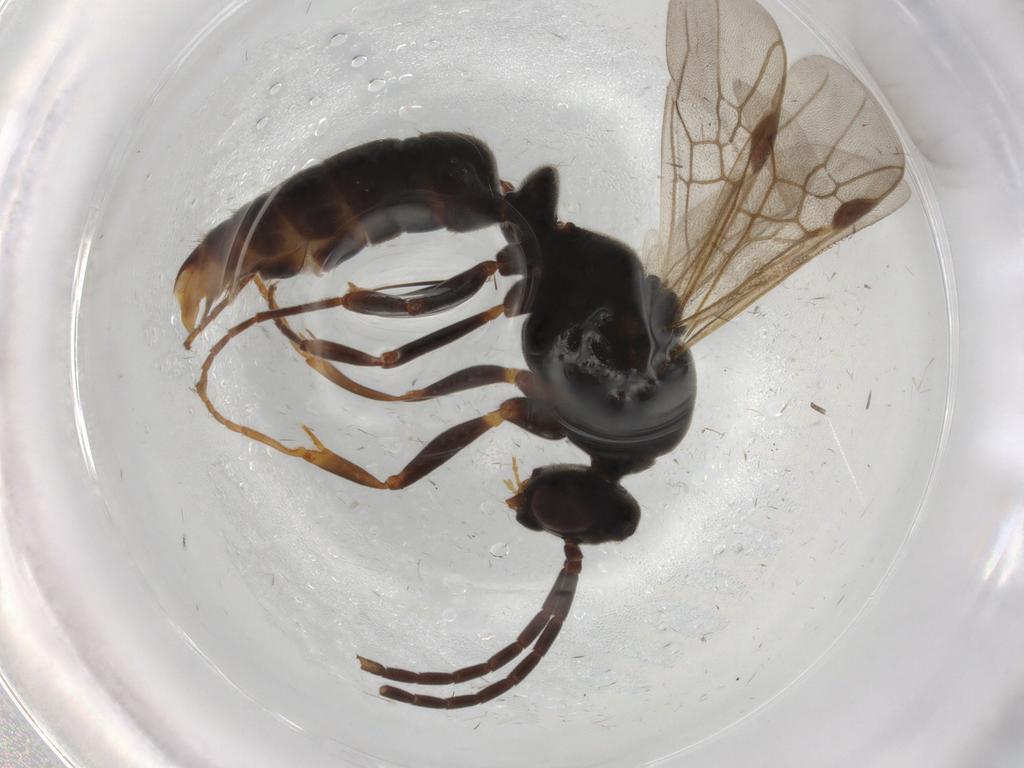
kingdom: Animalia
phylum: Arthropoda
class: Insecta
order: Hymenoptera
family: Formicidae
